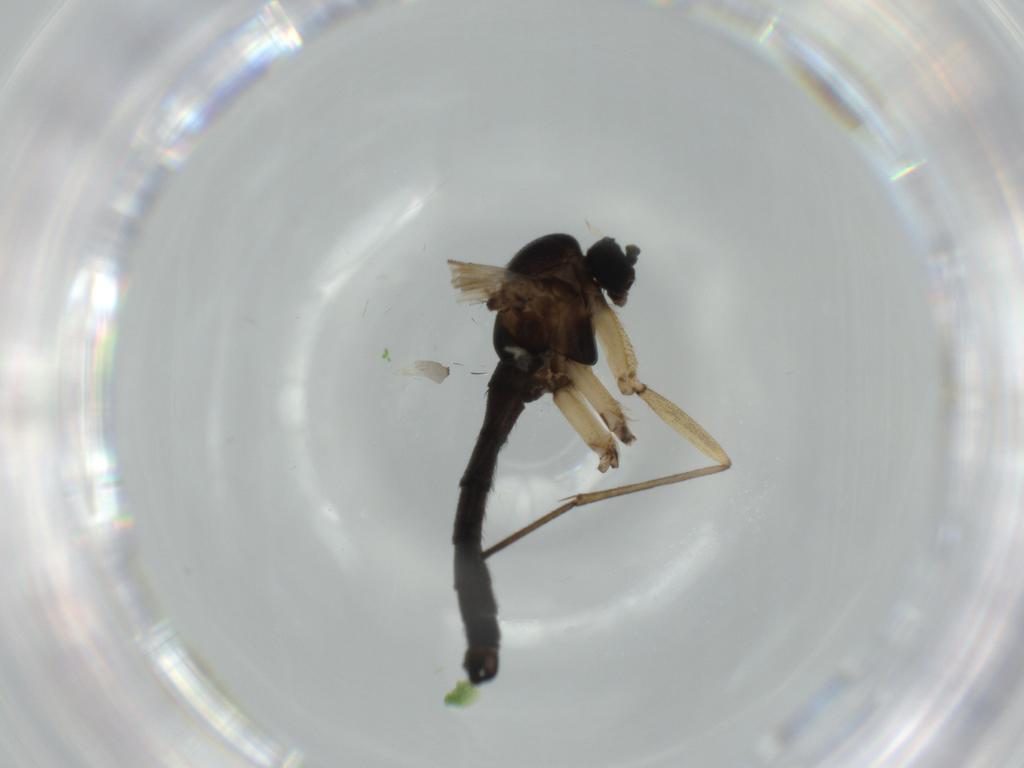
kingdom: Animalia
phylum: Arthropoda
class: Insecta
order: Diptera
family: Sciaridae
